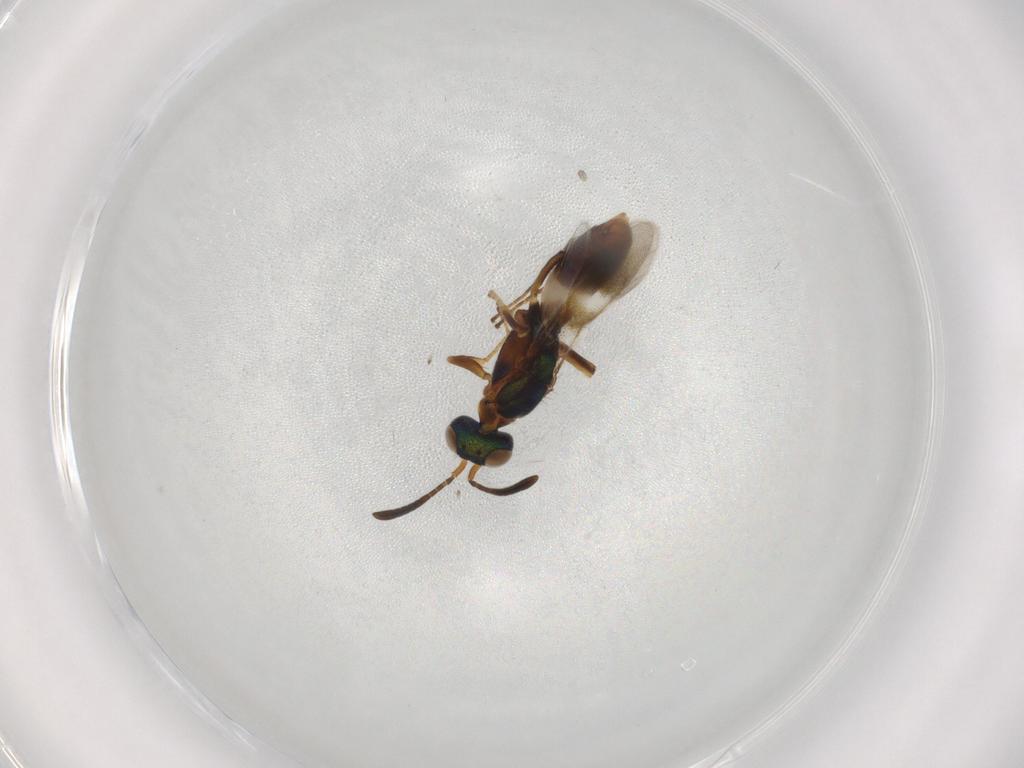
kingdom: Animalia
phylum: Arthropoda
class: Insecta
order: Hymenoptera
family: Eupelmidae
